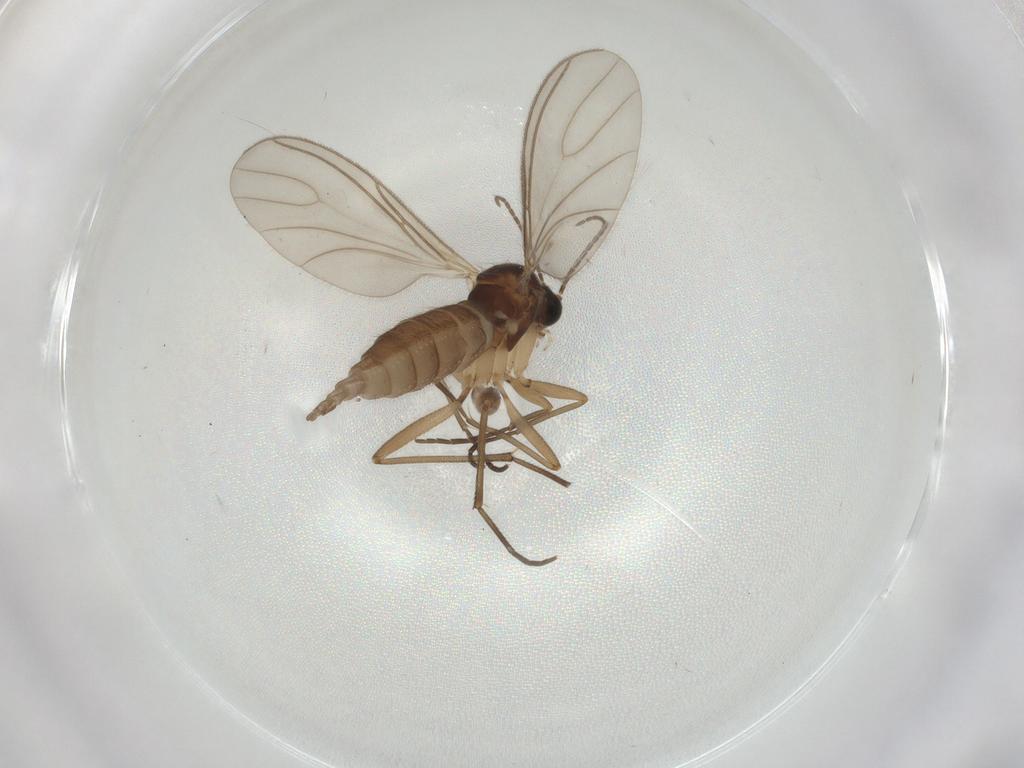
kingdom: Animalia
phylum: Arthropoda
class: Insecta
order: Diptera
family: Sciaridae
